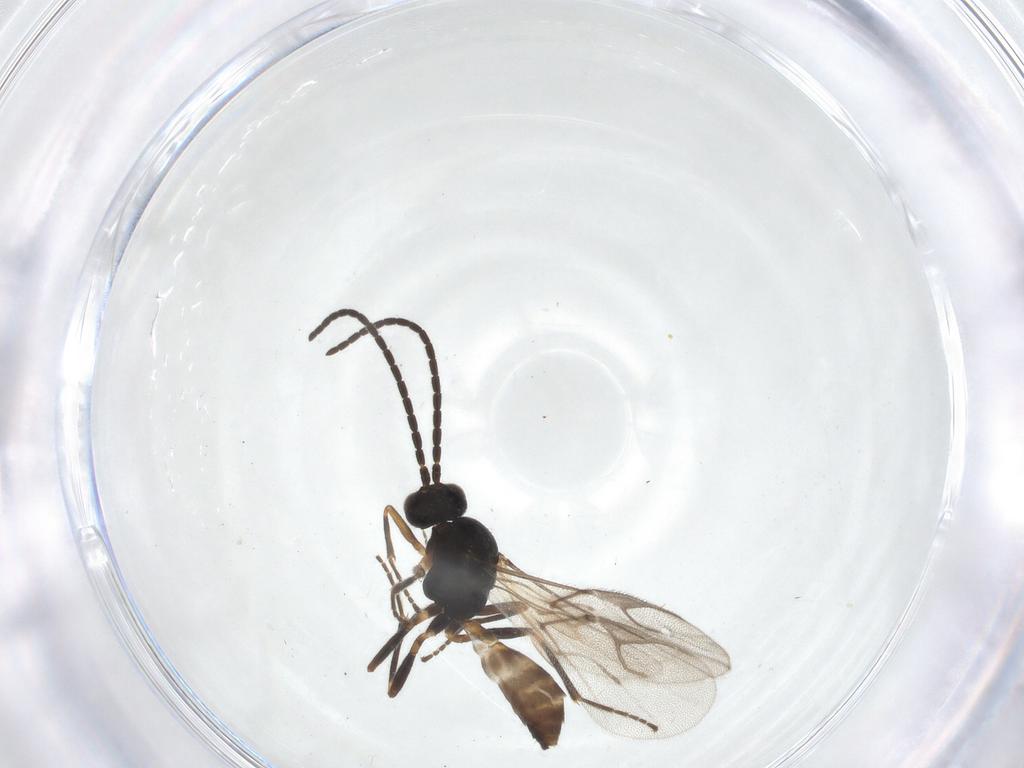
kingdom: Animalia
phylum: Arthropoda
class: Insecta
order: Hymenoptera
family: Braconidae
